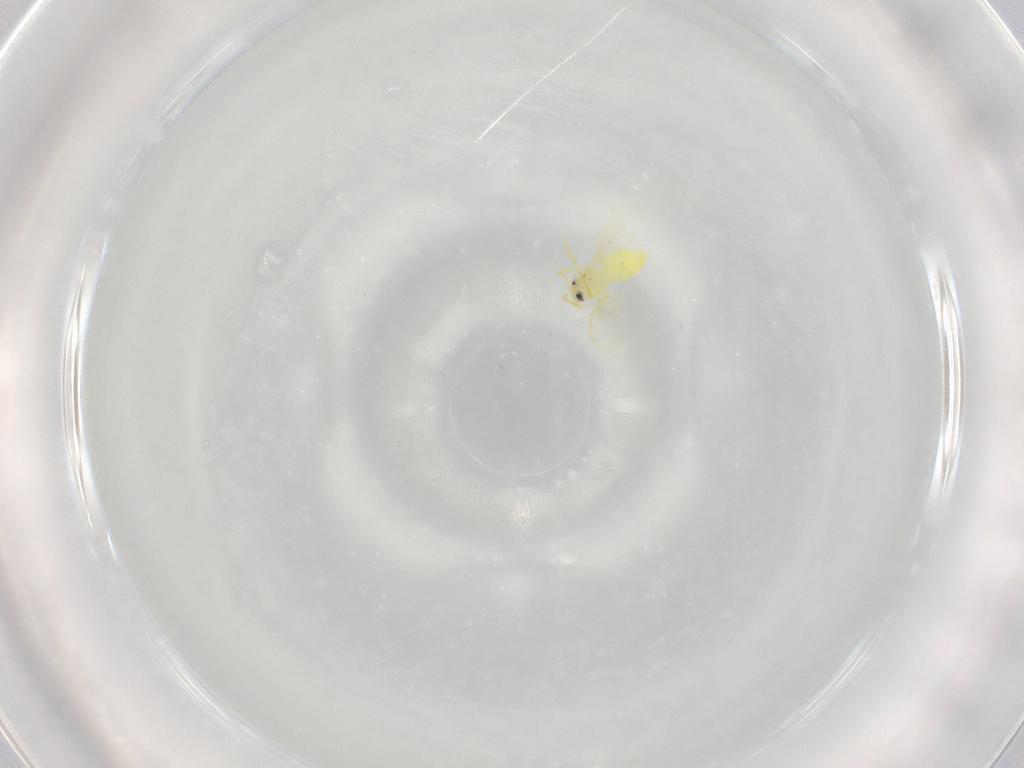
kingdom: Animalia
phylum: Arthropoda
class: Insecta
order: Hemiptera
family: Aleyrodidae
